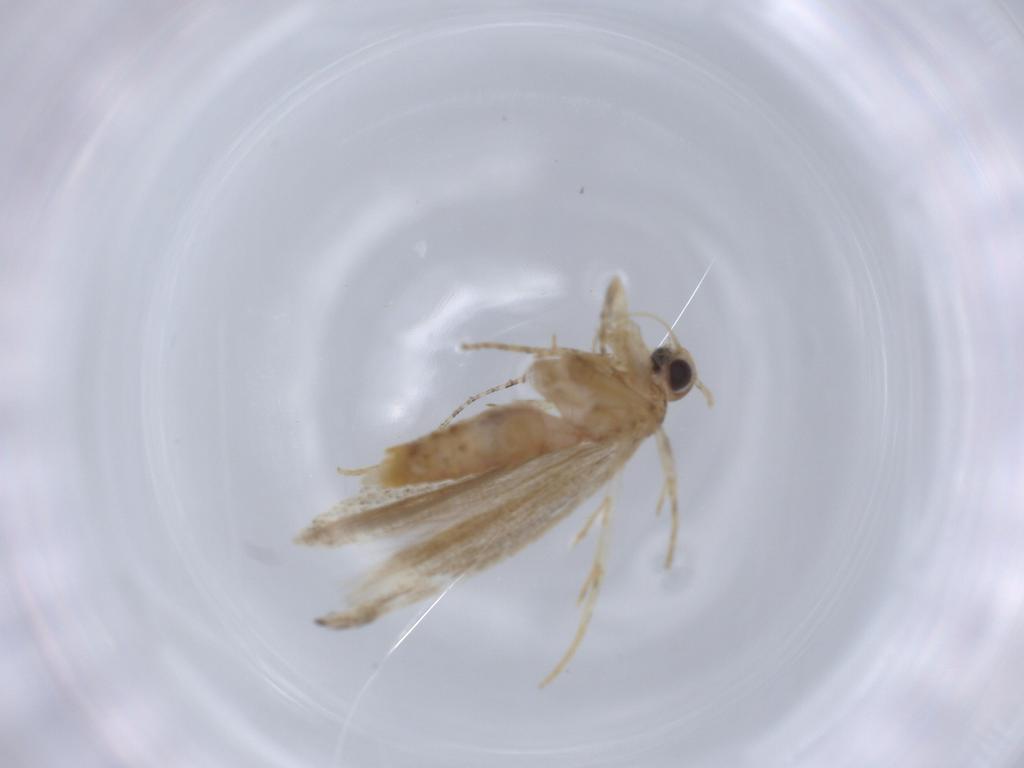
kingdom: Animalia
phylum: Arthropoda
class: Insecta
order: Lepidoptera
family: Gelechiidae
